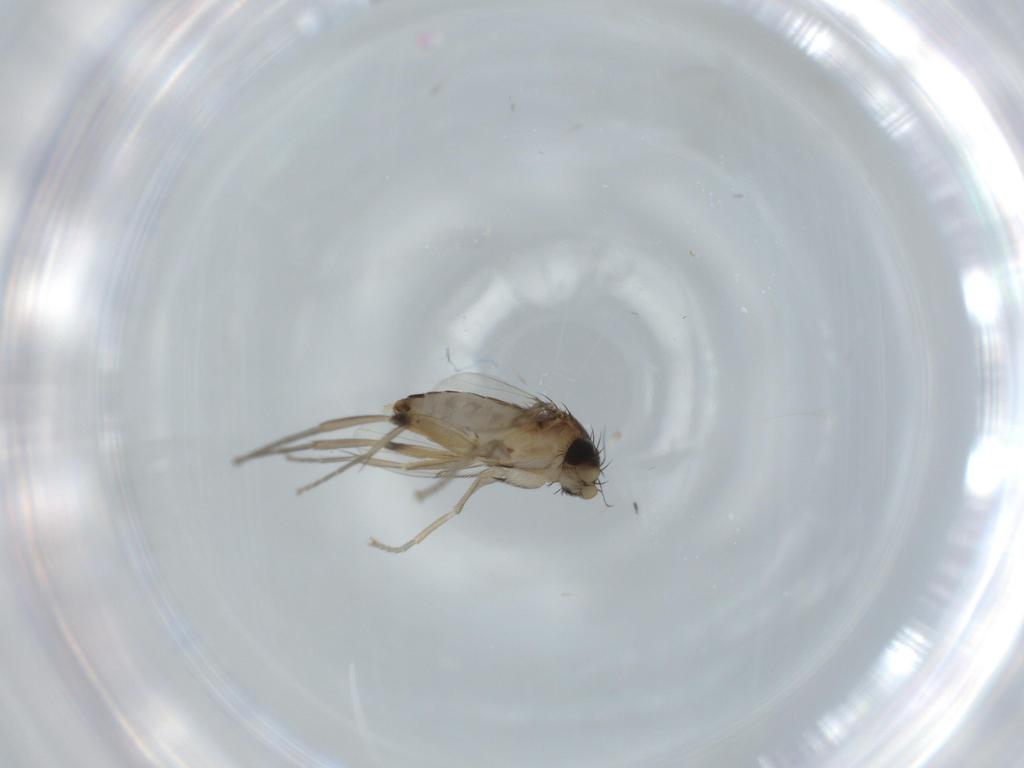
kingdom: Animalia
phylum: Arthropoda
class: Insecta
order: Diptera
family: Phoridae
